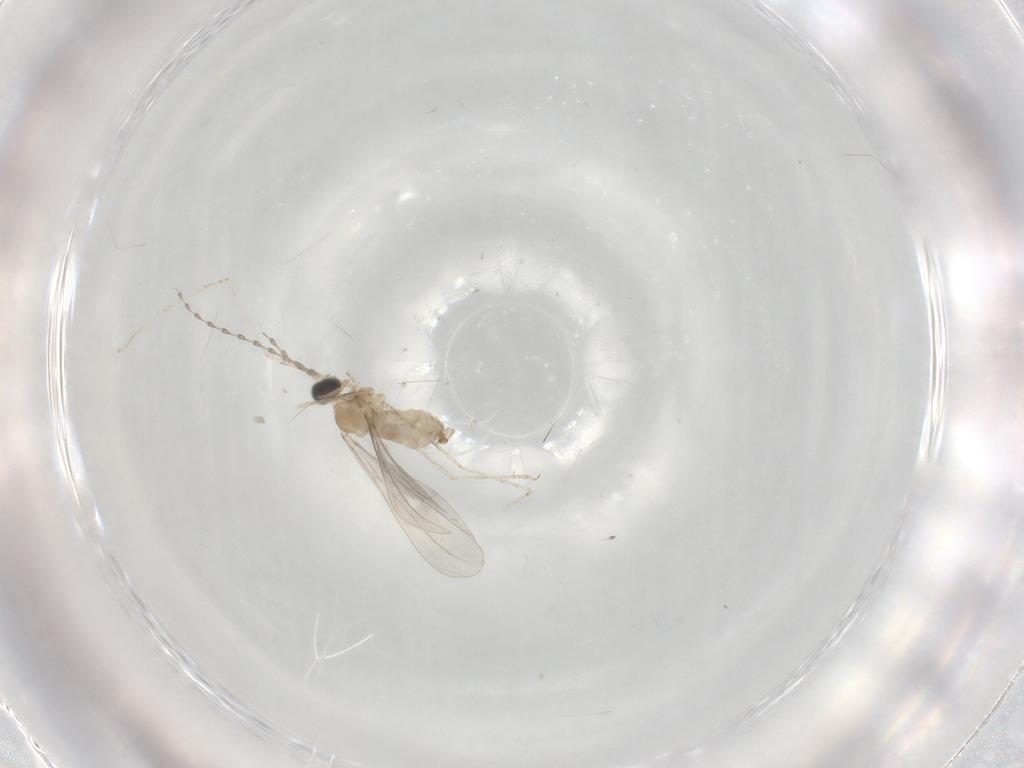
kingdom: Animalia
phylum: Arthropoda
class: Insecta
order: Diptera
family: Cecidomyiidae
